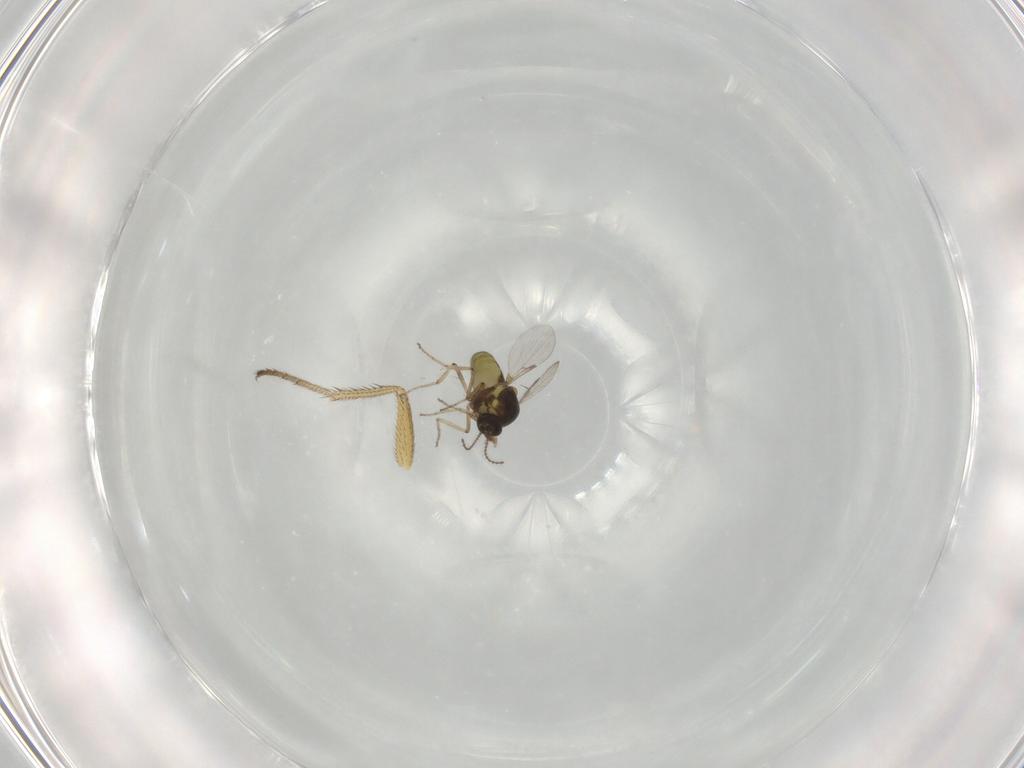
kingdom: Animalia
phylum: Arthropoda
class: Insecta
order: Diptera
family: Dolichopodidae
